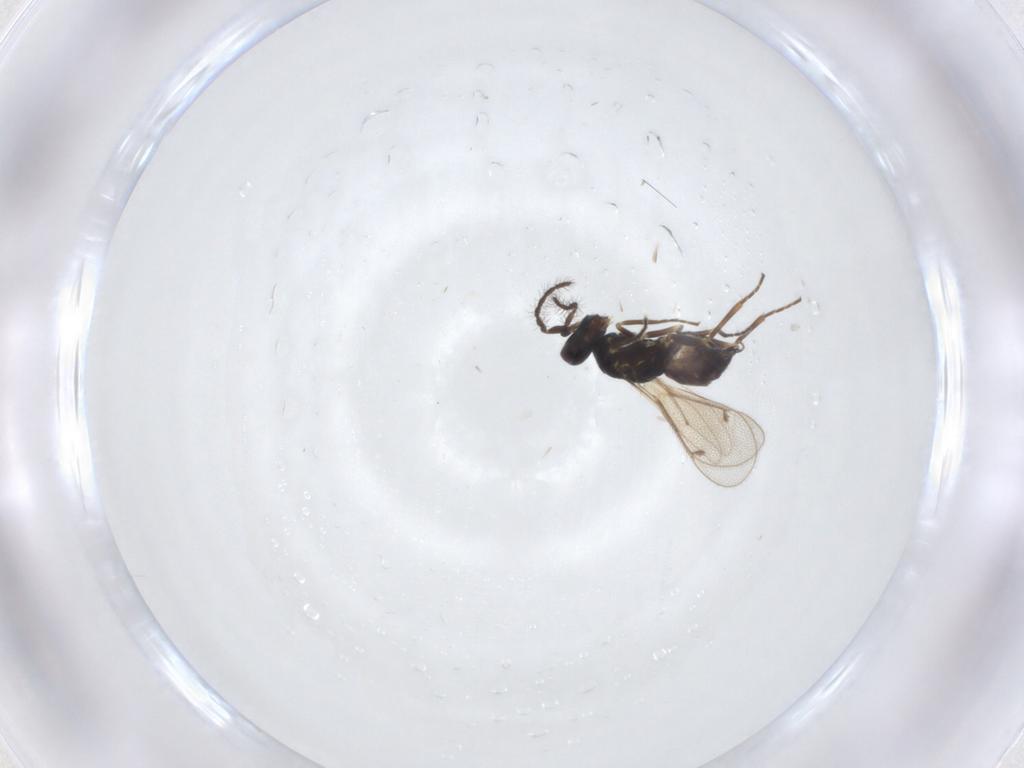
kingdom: Animalia
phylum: Arthropoda
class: Insecta
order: Hymenoptera
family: Eulophidae
